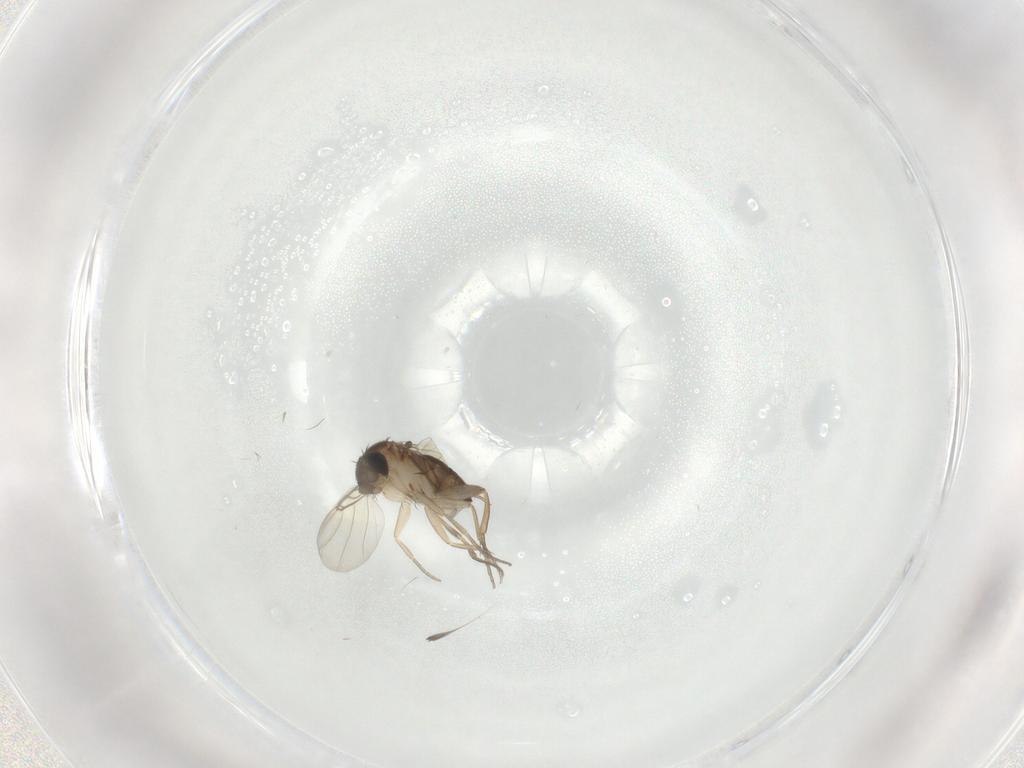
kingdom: Animalia
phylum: Arthropoda
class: Insecta
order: Diptera
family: Phoridae
